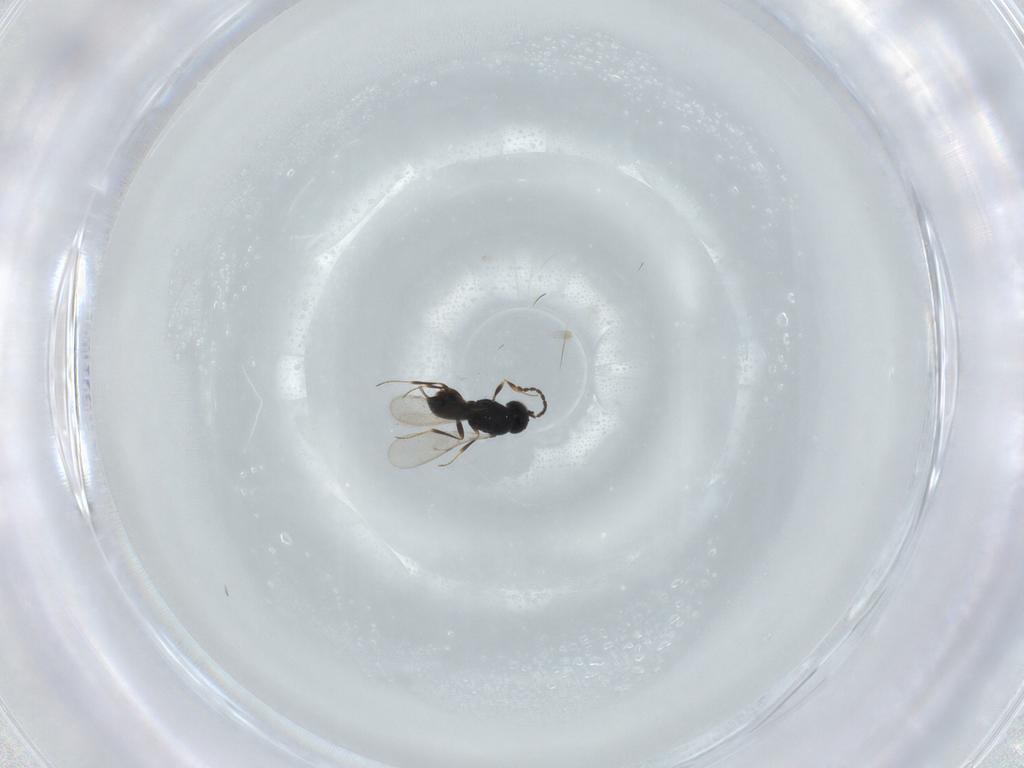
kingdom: Animalia
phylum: Arthropoda
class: Insecta
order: Hymenoptera
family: Scelionidae
